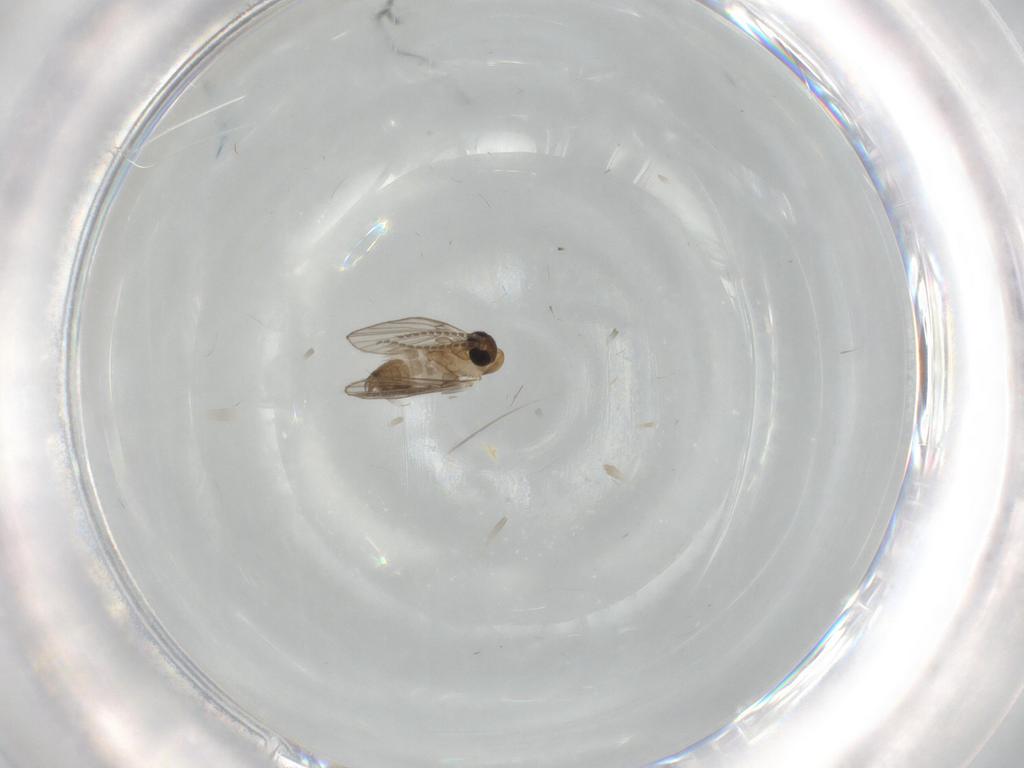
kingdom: Animalia
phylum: Arthropoda
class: Insecta
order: Diptera
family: Psychodidae
